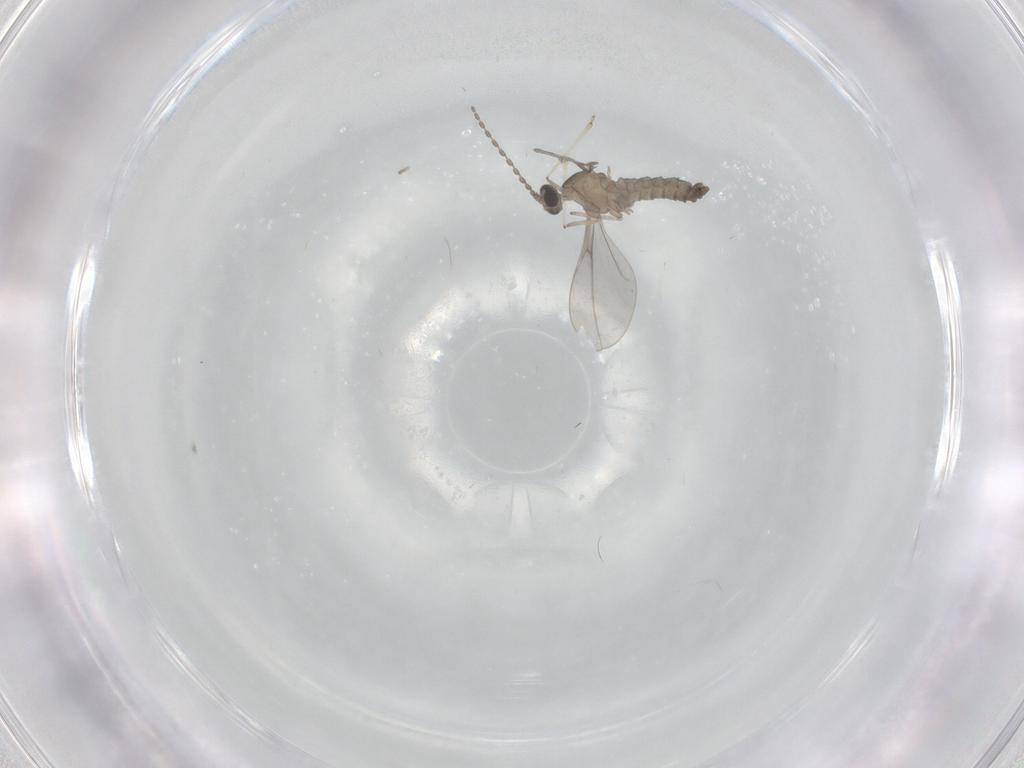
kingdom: Animalia
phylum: Arthropoda
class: Insecta
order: Diptera
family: Cecidomyiidae
